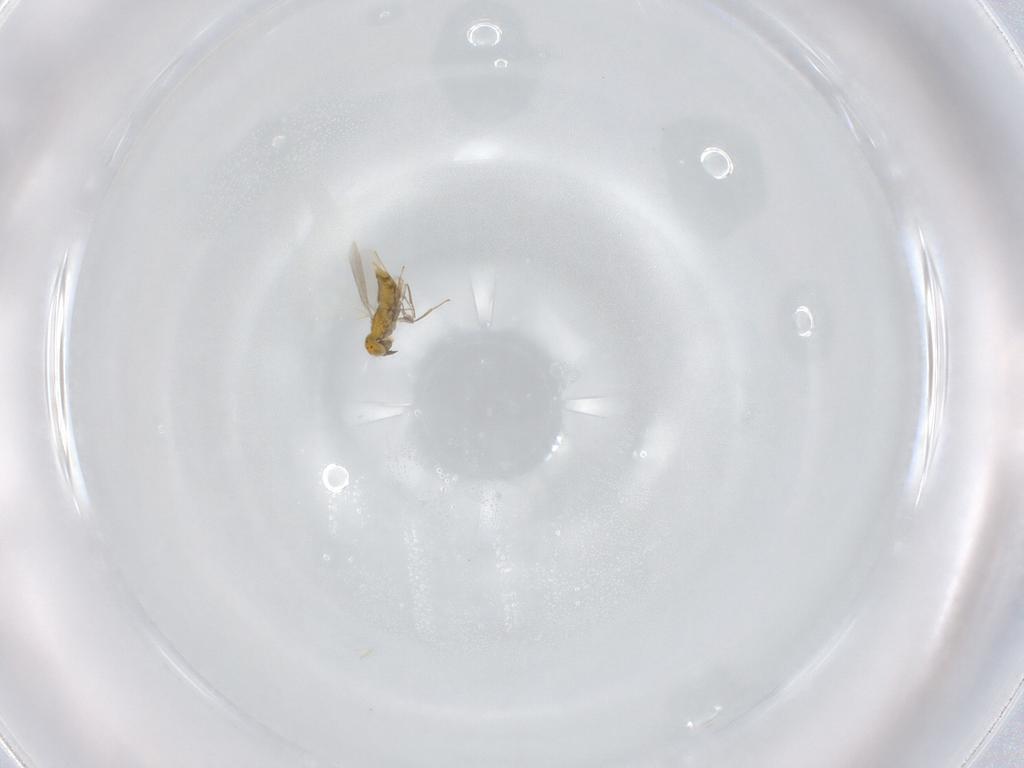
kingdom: Animalia
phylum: Arthropoda
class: Insecta
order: Hymenoptera
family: Aphelinidae
